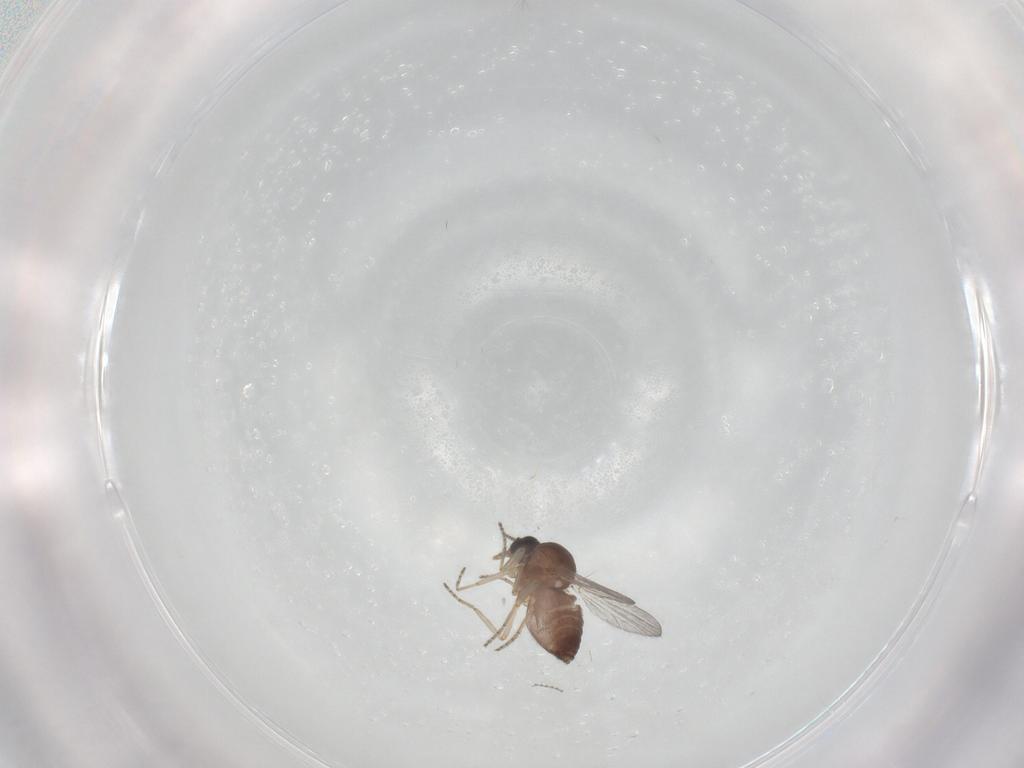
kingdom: Animalia
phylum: Arthropoda
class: Insecta
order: Diptera
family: Ceratopogonidae
